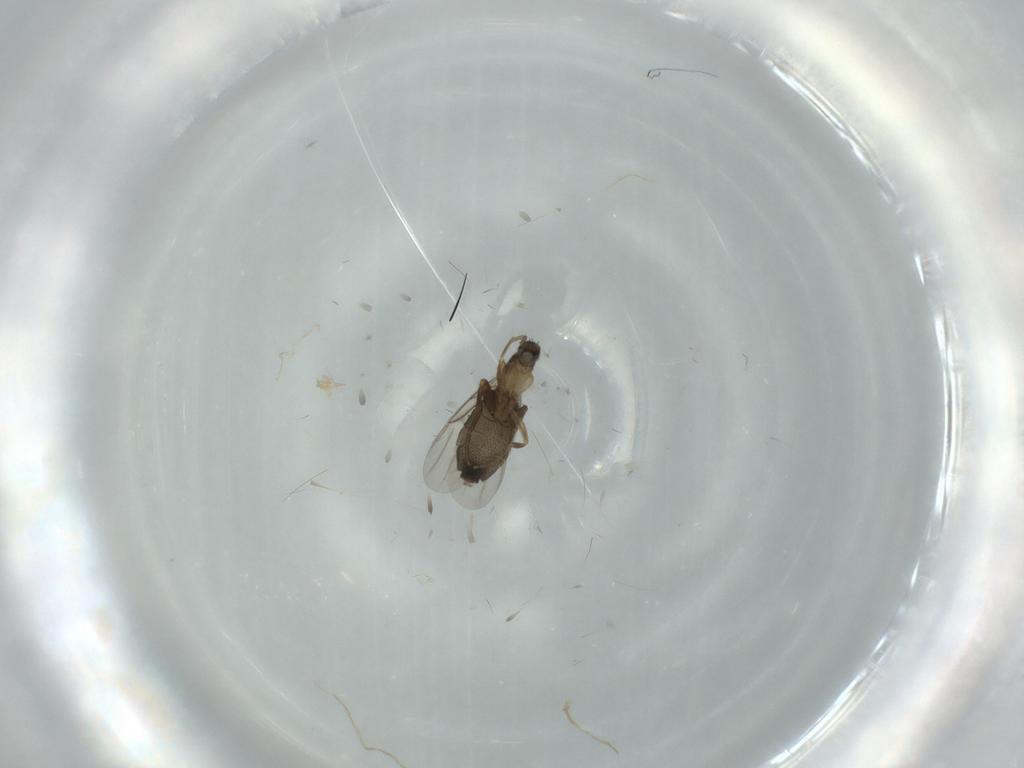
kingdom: Animalia
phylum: Arthropoda
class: Insecta
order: Diptera
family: Phoridae
